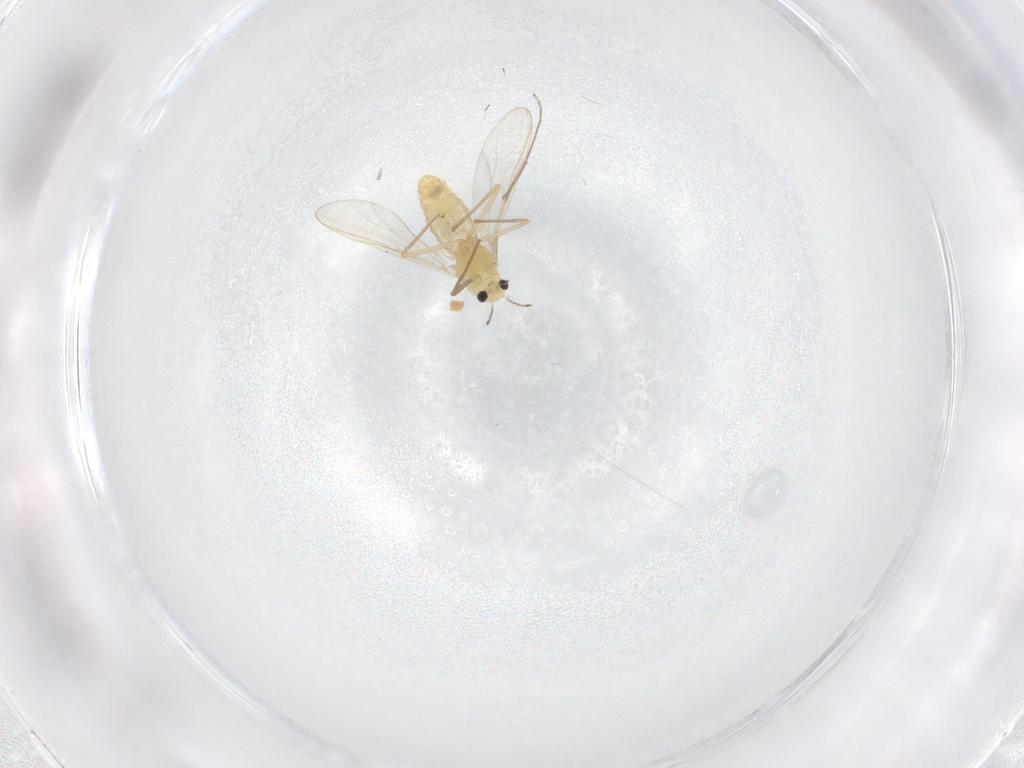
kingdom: Animalia
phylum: Arthropoda
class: Insecta
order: Diptera
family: Chironomidae
